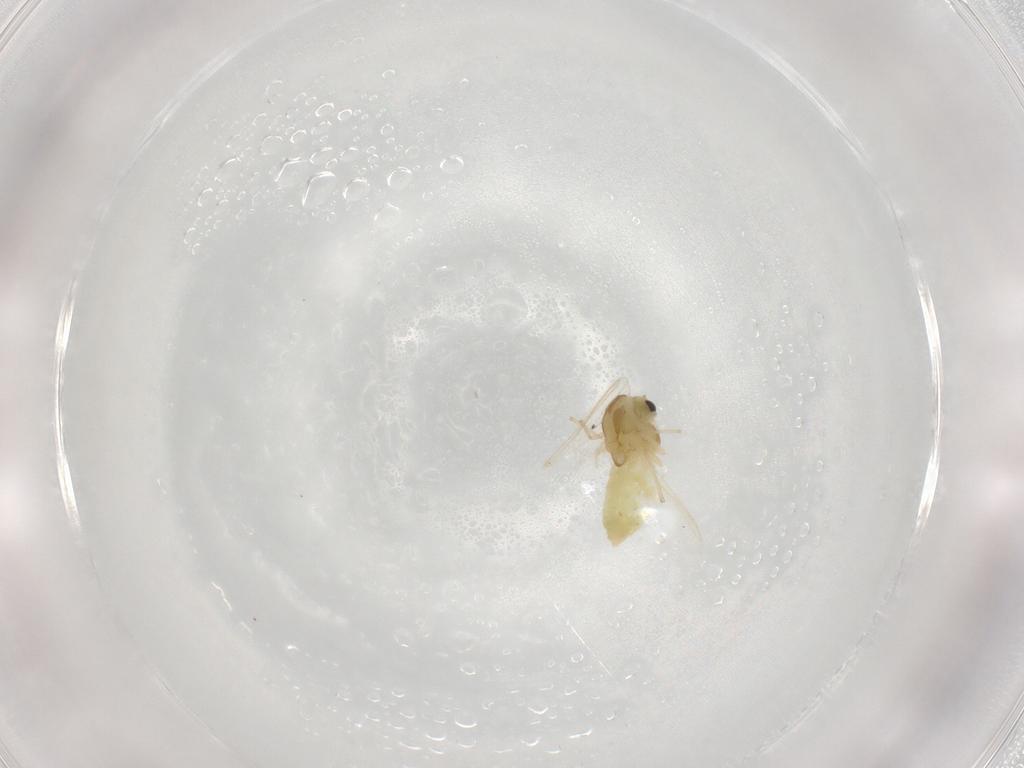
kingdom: Animalia
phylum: Arthropoda
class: Insecta
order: Diptera
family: Chironomidae
